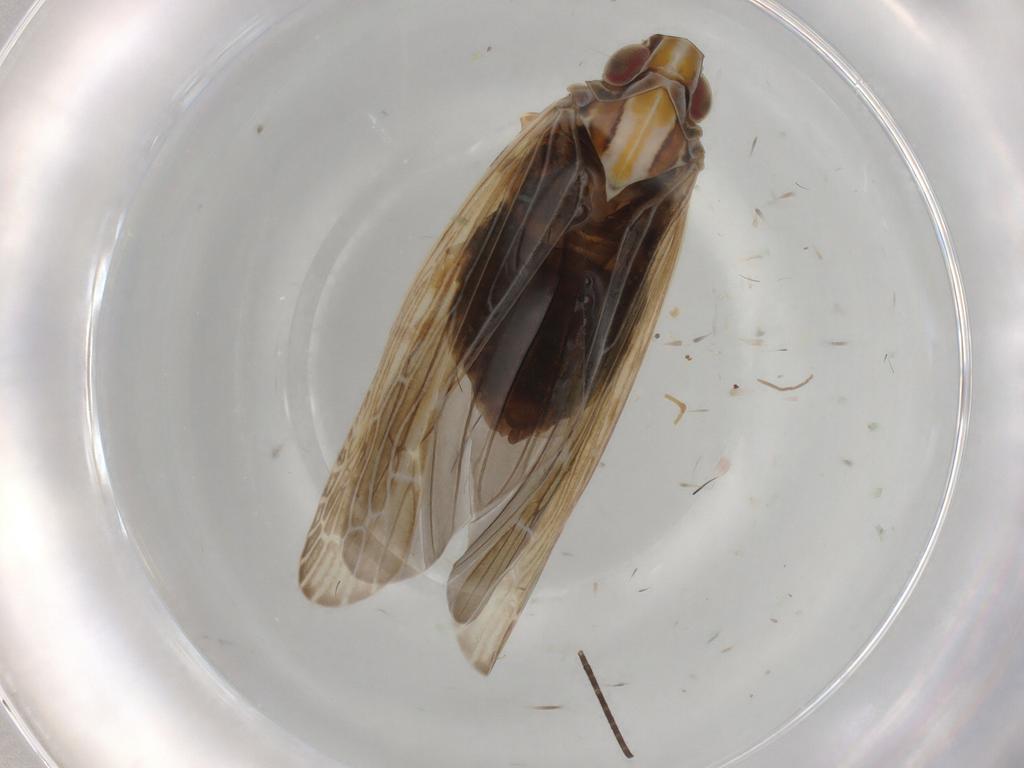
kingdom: Animalia
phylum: Arthropoda
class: Insecta
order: Hemiptera
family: Achilidae
